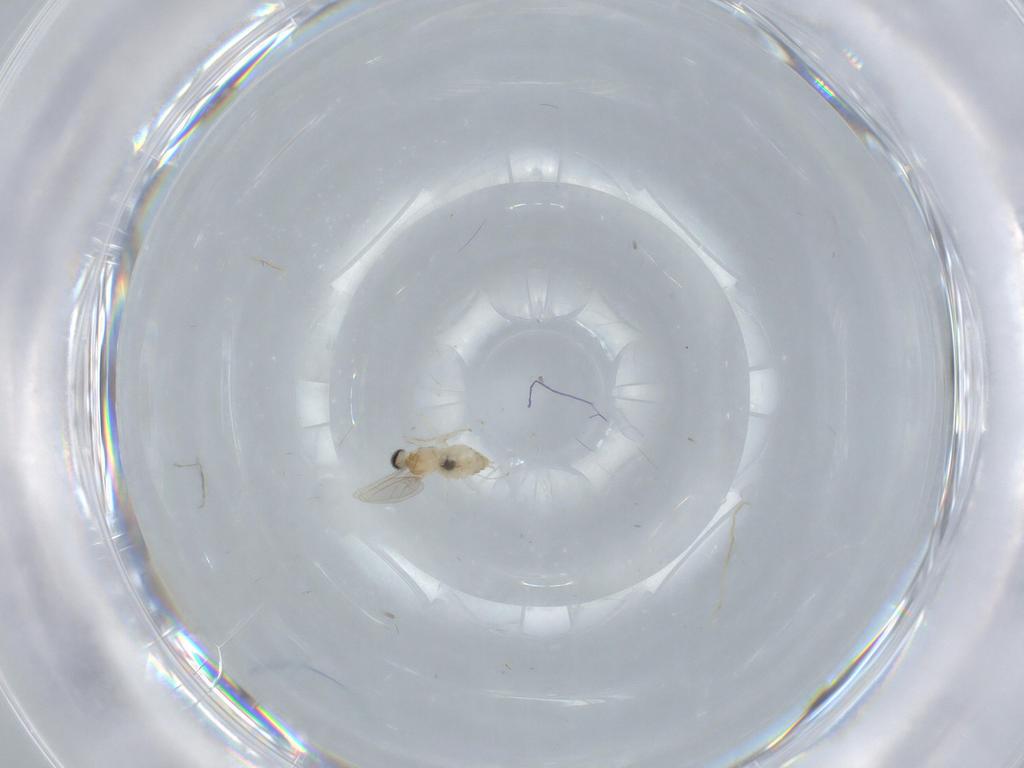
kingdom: Animalia
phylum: Arthropoda
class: Insecta
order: Diptera
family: Cecidomyiidae
